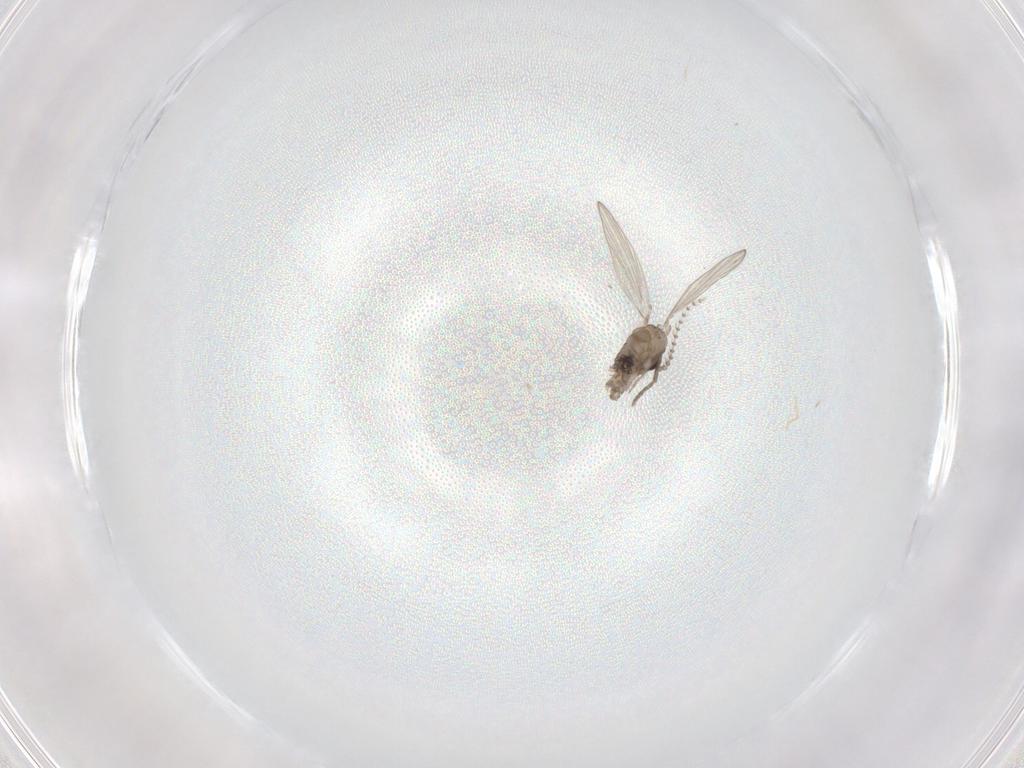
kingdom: Animalia
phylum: Arthropoda
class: Insecta
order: Diptera
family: Psychodidae
